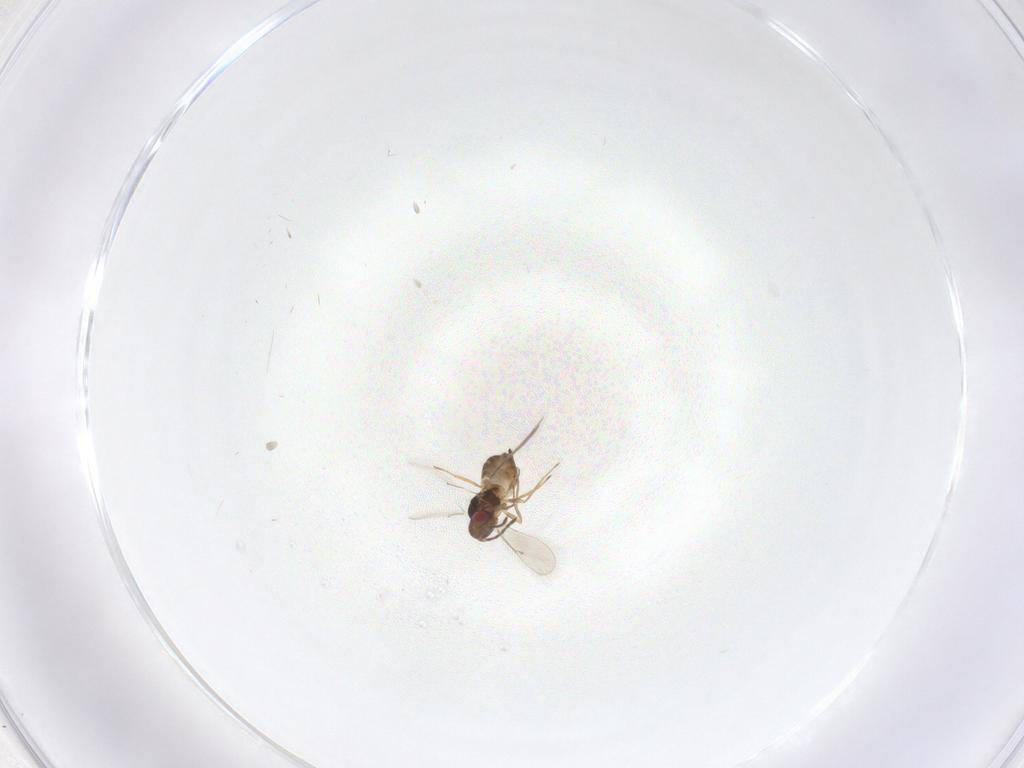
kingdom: Animalia
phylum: Arthropoda
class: Insecta
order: Hymenoptera
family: Eulophidae
